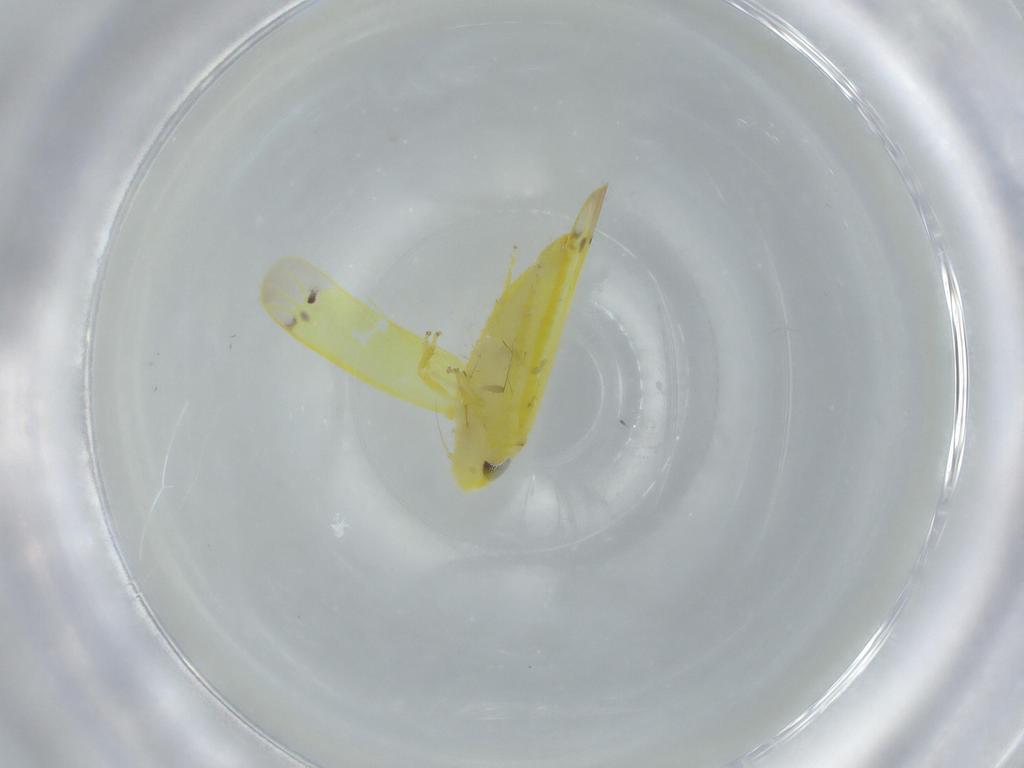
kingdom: Animalia
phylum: Arthropoda
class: Insecta
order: Hemiptera
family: Cicadellidae
